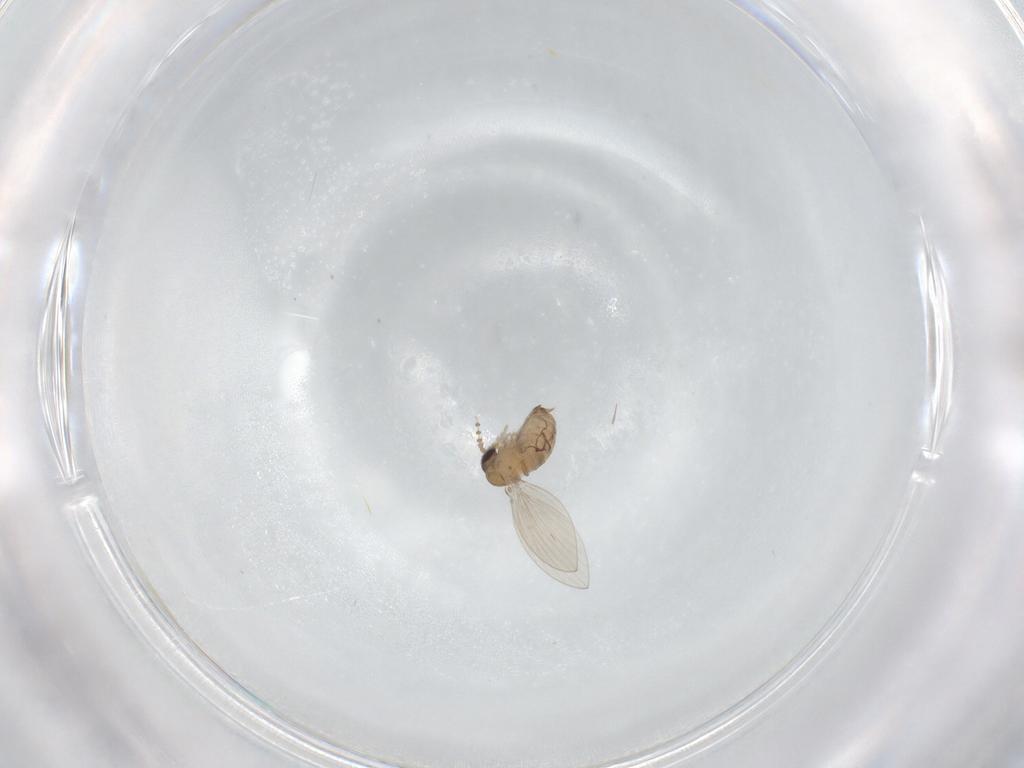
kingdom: Animalia
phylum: Arthropoda
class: Insecta
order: Diptera
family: Psychodidae
